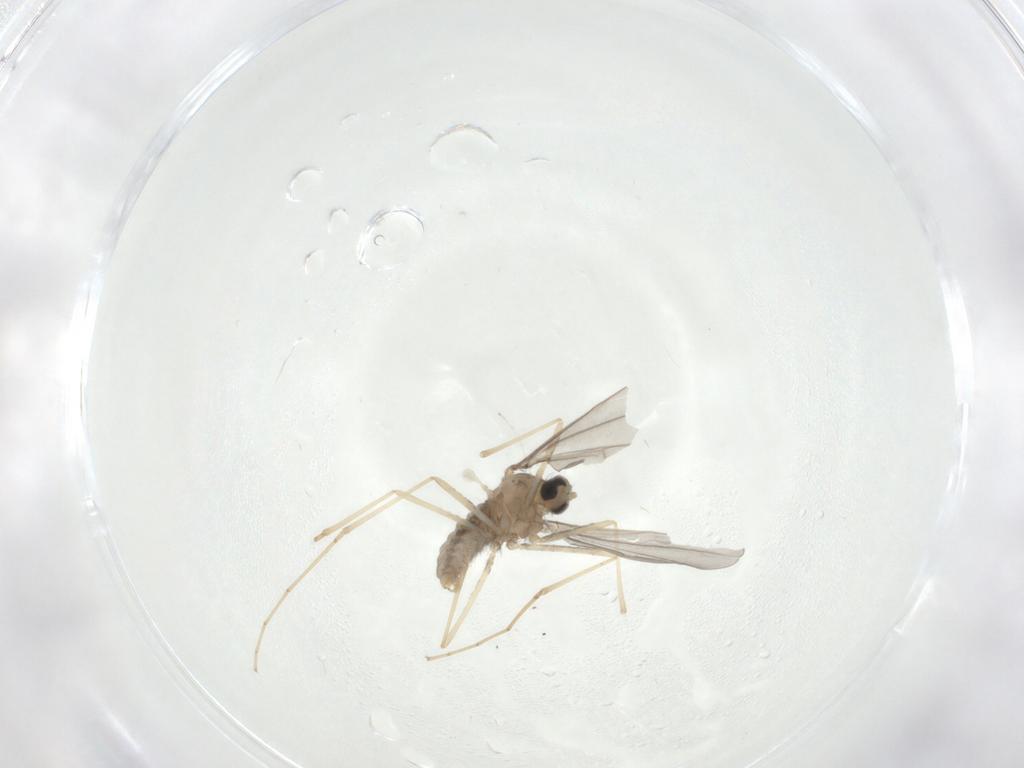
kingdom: Animalia
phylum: Arthropoda
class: Insecta
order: Diptera
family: Cecidomyiidae
